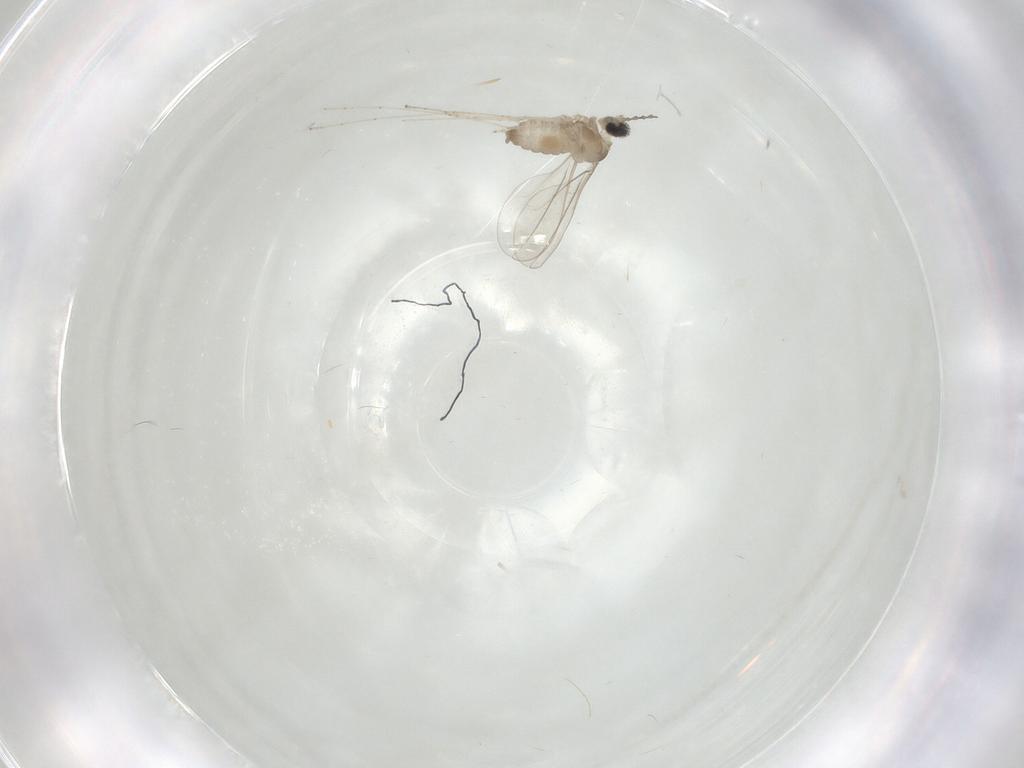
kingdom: Animalia
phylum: Arthropoda
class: Insecta
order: Diptera
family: Cecidomyiidae
